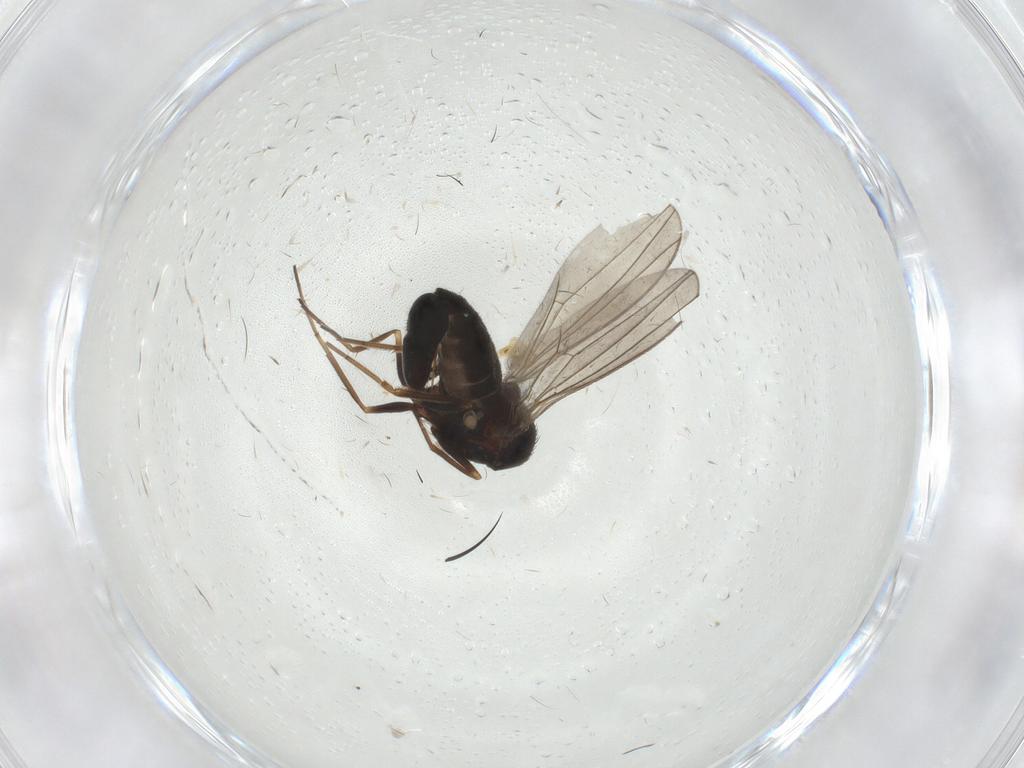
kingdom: Animalia
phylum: Arthropoda
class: Insecta
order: Diptera
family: Dolichopodidae
